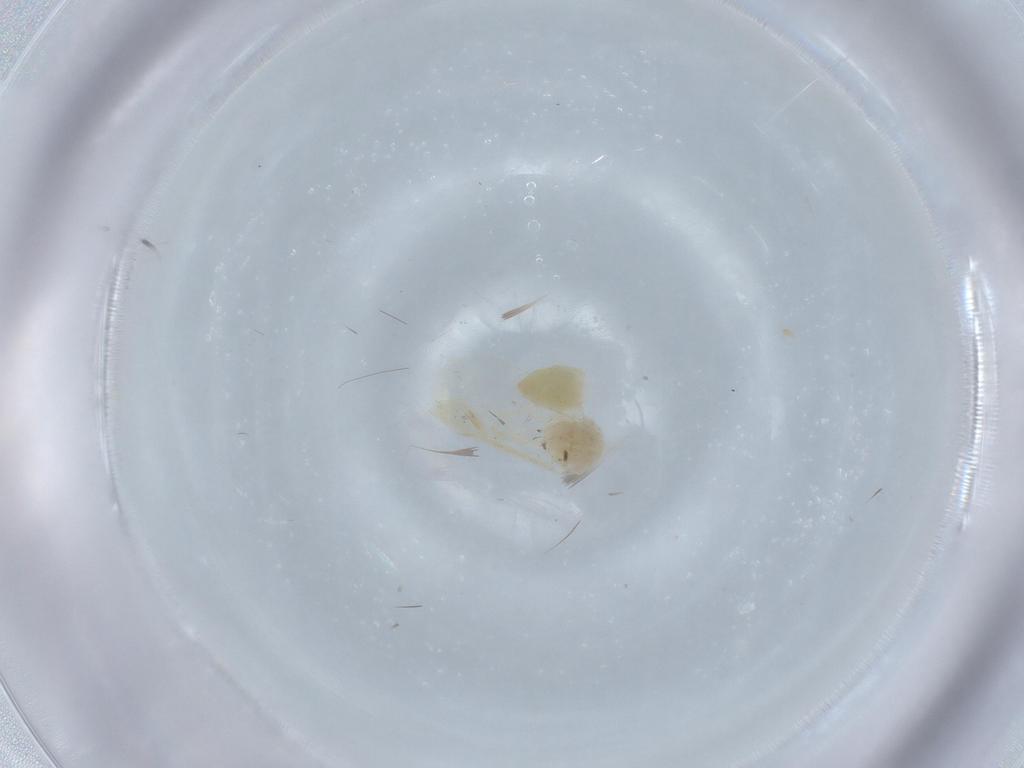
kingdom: Animalia
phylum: Arthropoda
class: Insecta
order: Hemiptera
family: Aleyrodidae
